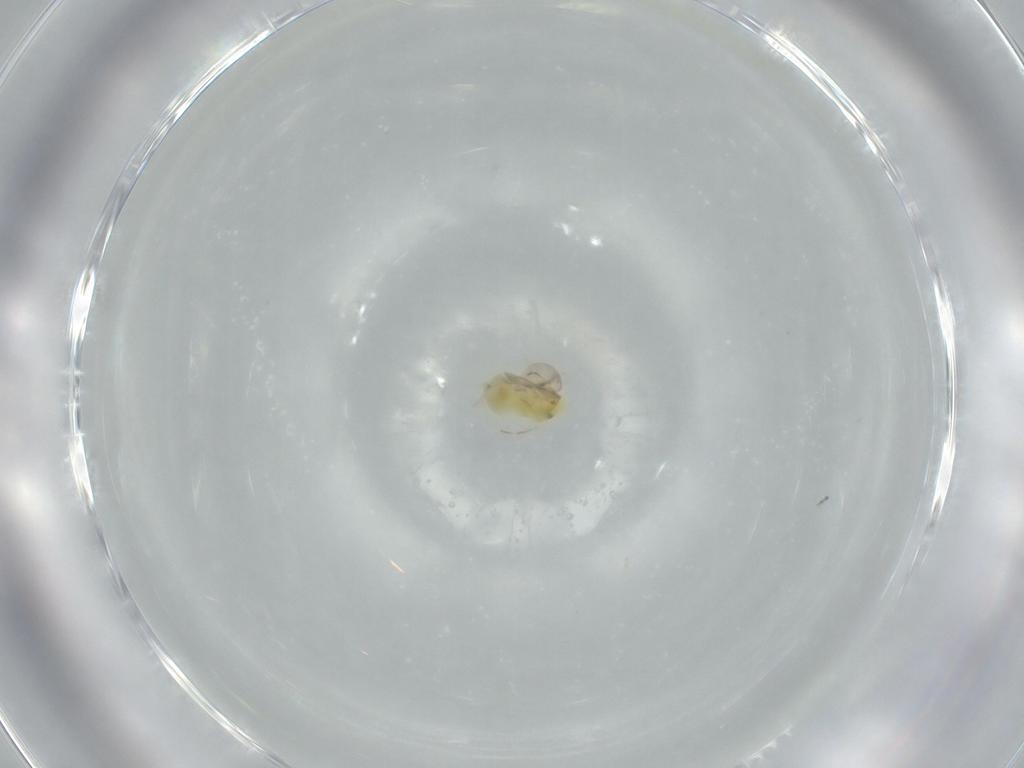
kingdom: Animalia
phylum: Arthropoda
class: Insecta
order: Hemiptera
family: Aleyrodidae
